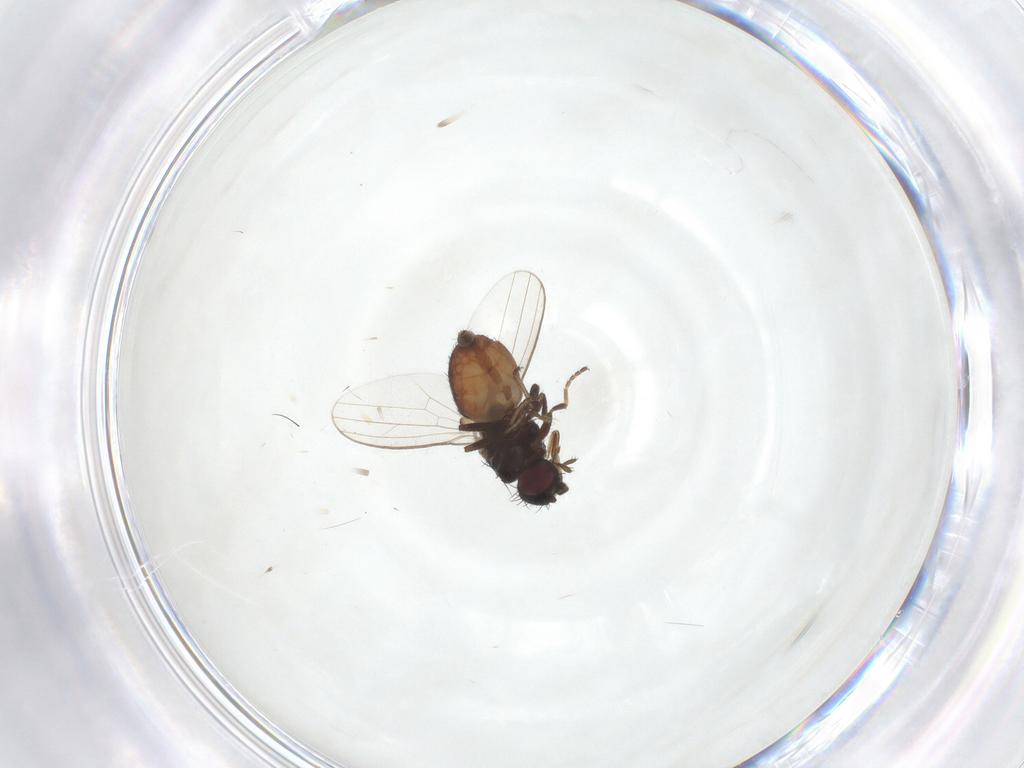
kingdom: Animalia
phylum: Arthropoda
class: Insecta
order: Diptera
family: Milichiidae
